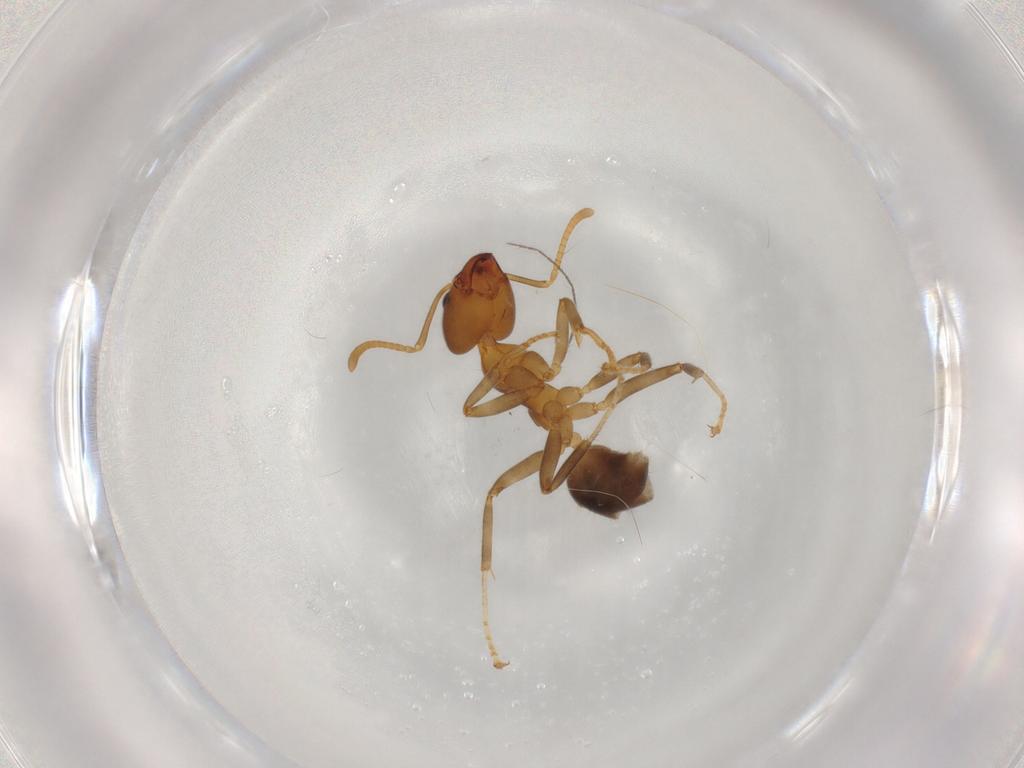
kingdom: Animalia
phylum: Arthropoda
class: Insecta
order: Hymenoptera
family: Formicidae
